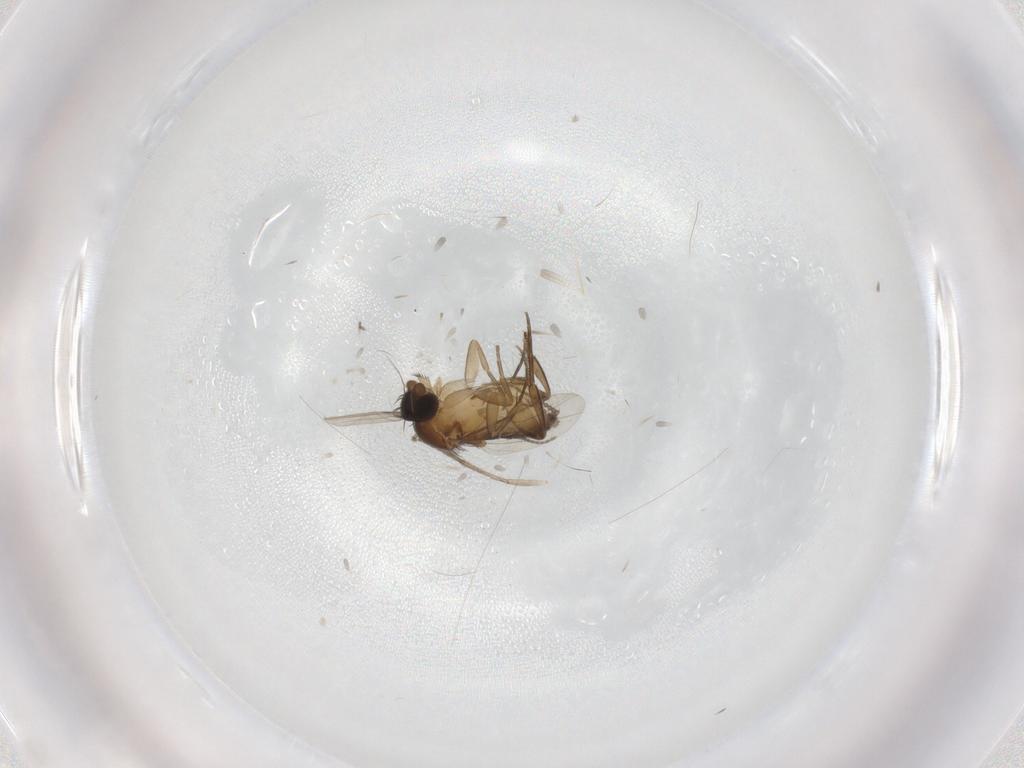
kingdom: Animalia
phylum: Arthropoda
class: Insecta
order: Diptera
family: Phoridae
